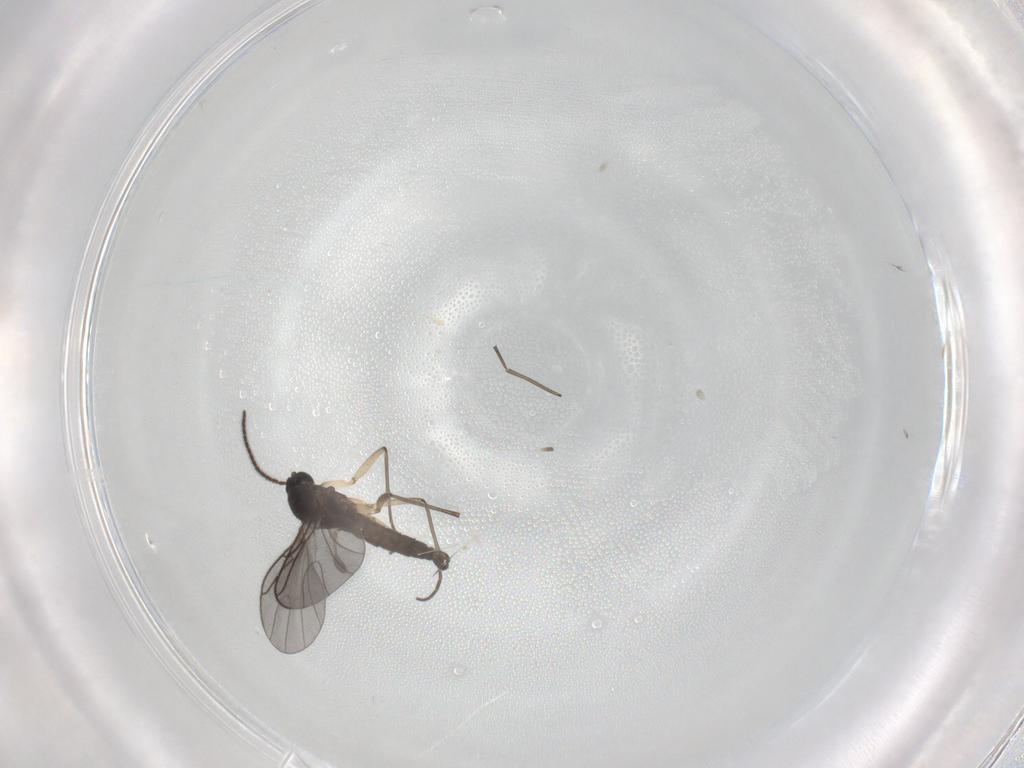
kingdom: Animalia
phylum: Arthropoda
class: Insecta
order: Diptera
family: Sciaridae
